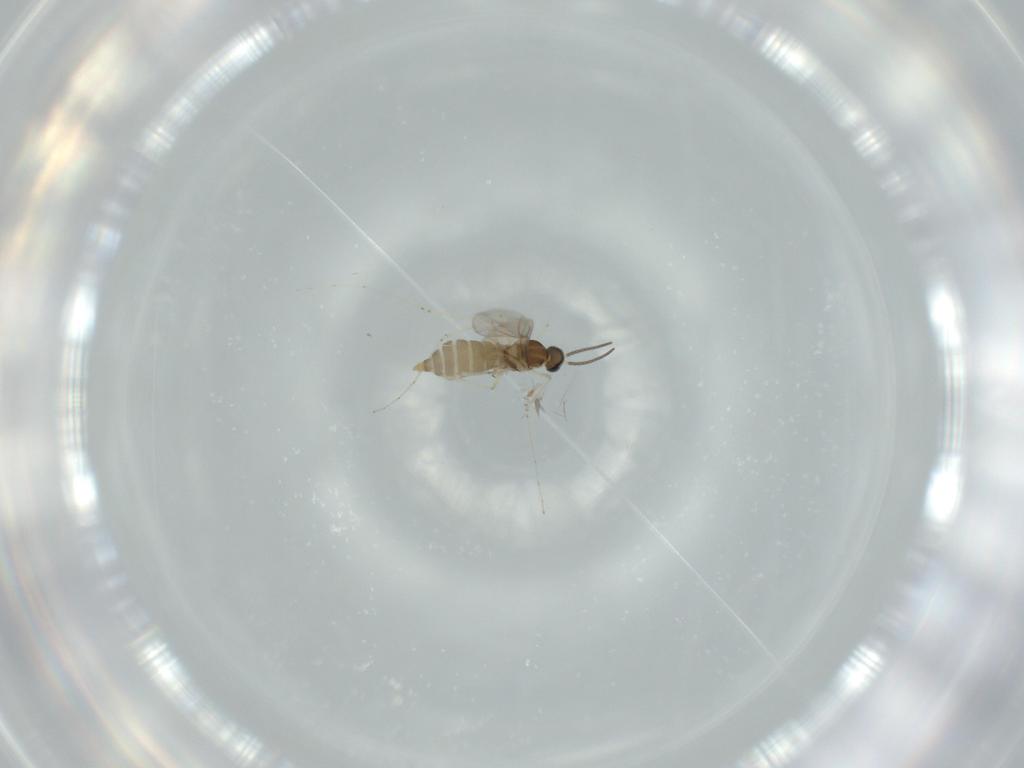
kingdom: Animalia
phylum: Arthropoda
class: Insecta
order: Diptera
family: Cecidomyiidae
